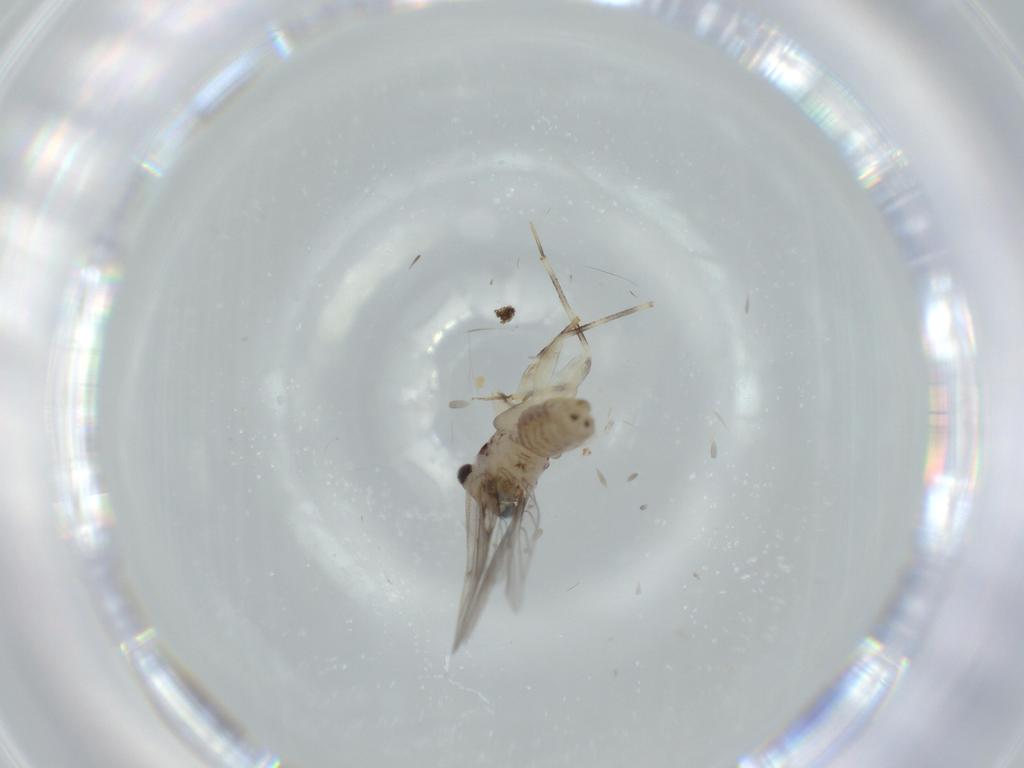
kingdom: Animalia
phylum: Arthropoda
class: Insecta
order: Psocodea
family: Lepidopsocidae
